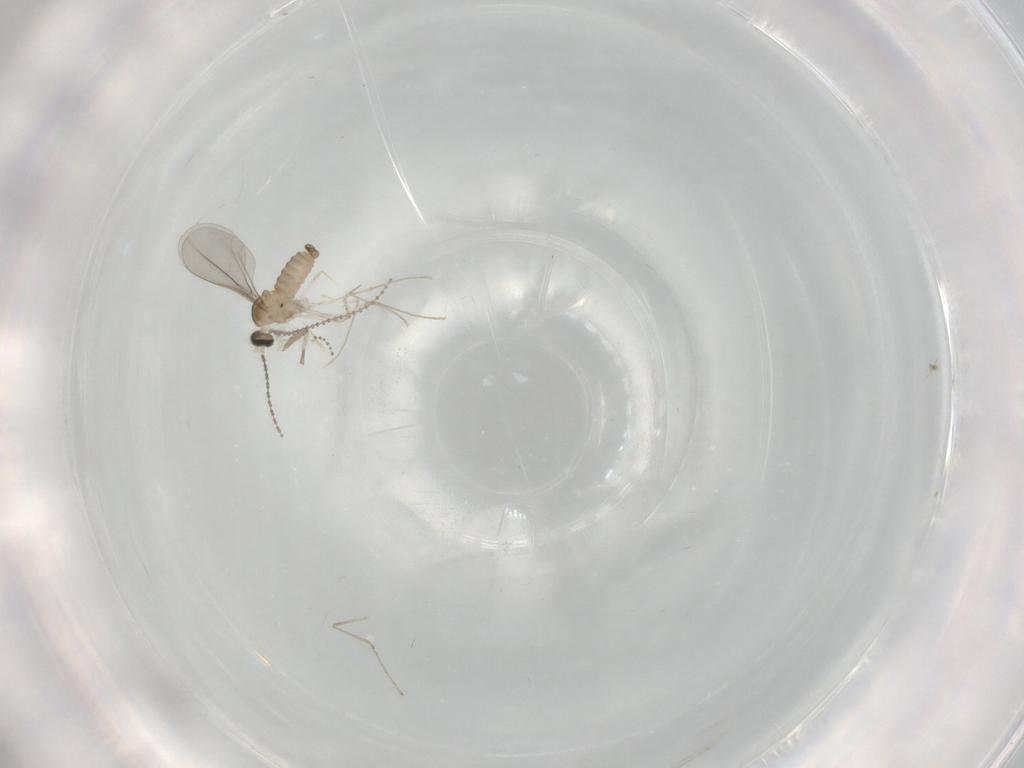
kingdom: Animalia
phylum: Arthropoda
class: Insecta
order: Diptera
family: Cecidomyiidae
